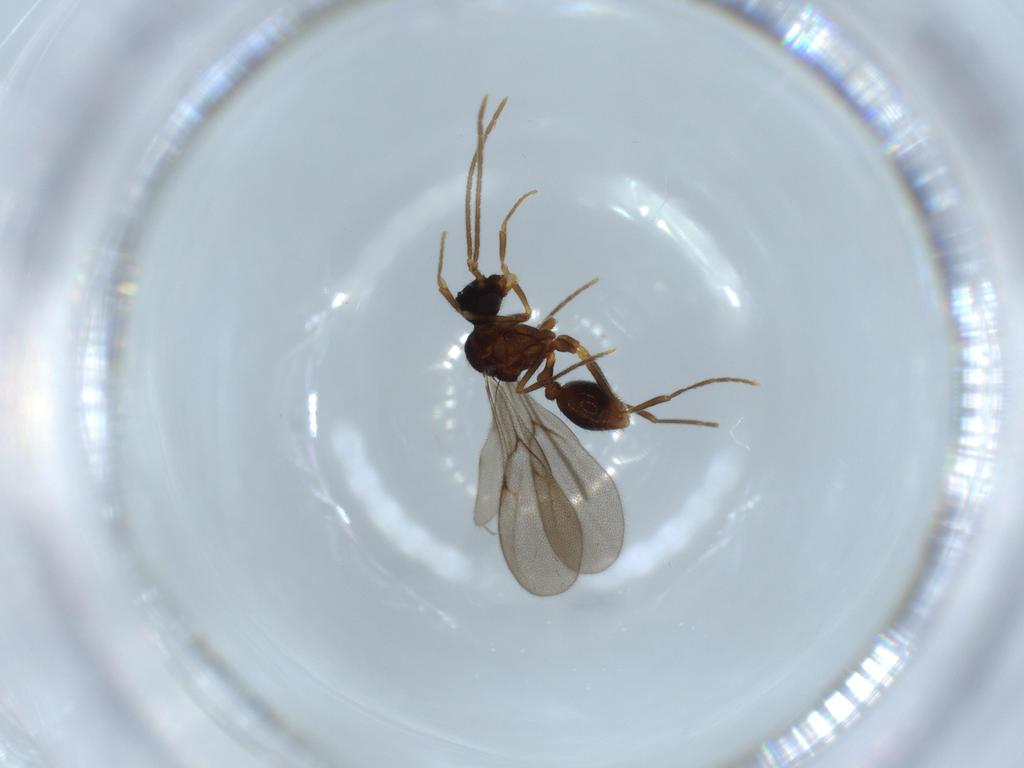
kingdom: Animalia
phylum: Arthropoda
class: Insecta
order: Hymenoptera
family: Formicidae
